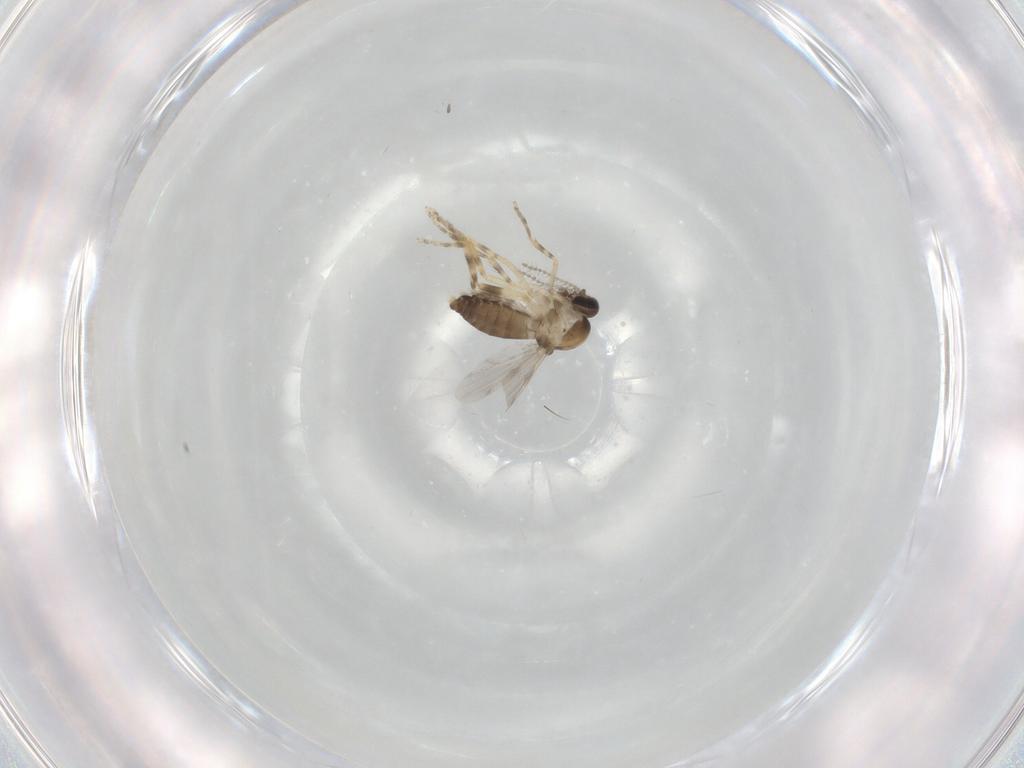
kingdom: Animalia
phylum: Arthropoda
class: Insecta
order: Diptera
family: Ceratopogonidae
